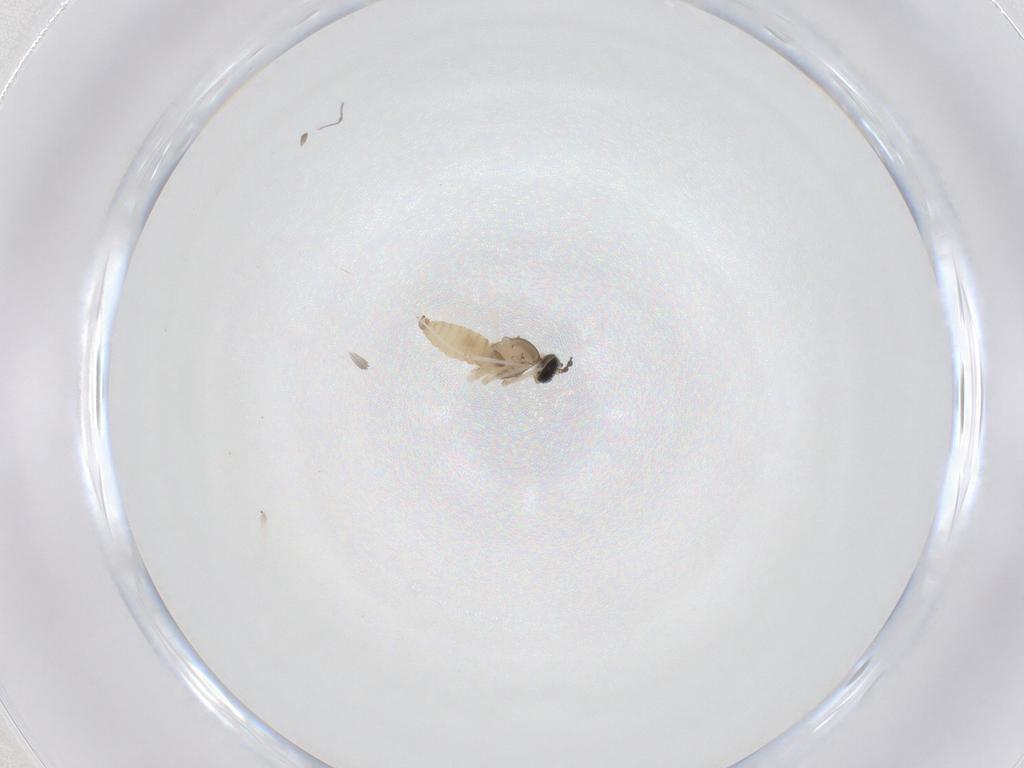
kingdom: Animalia
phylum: Arthropoda
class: Insecta
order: Diptera
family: Cecidomyiidae
